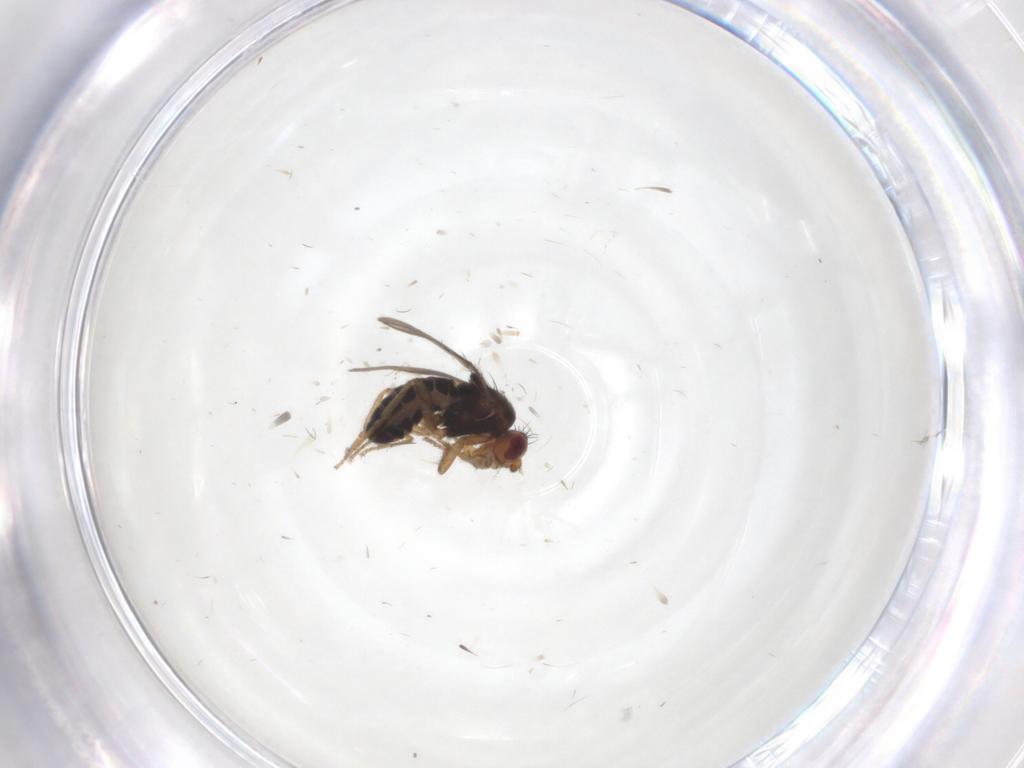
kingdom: Animalia
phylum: Arthropoda
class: Insecta
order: Diptera
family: Sphaeroceridae
